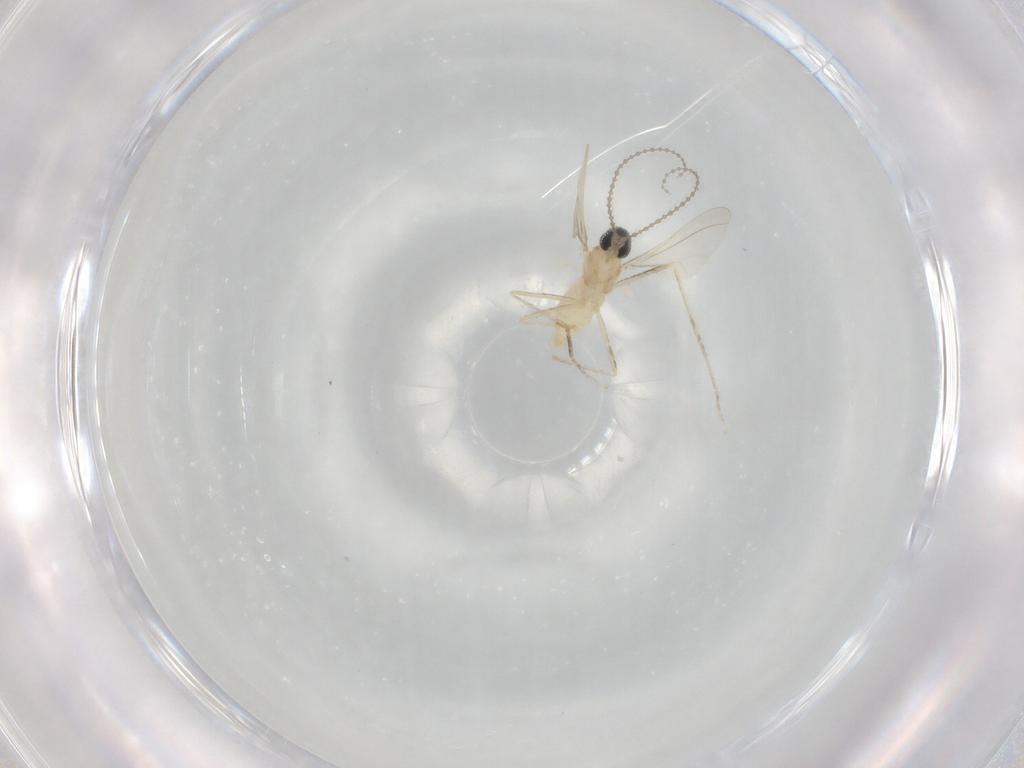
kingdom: Animalia
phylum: Arthropoda
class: Insecta
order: Diptera
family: Cecidomyiidae
